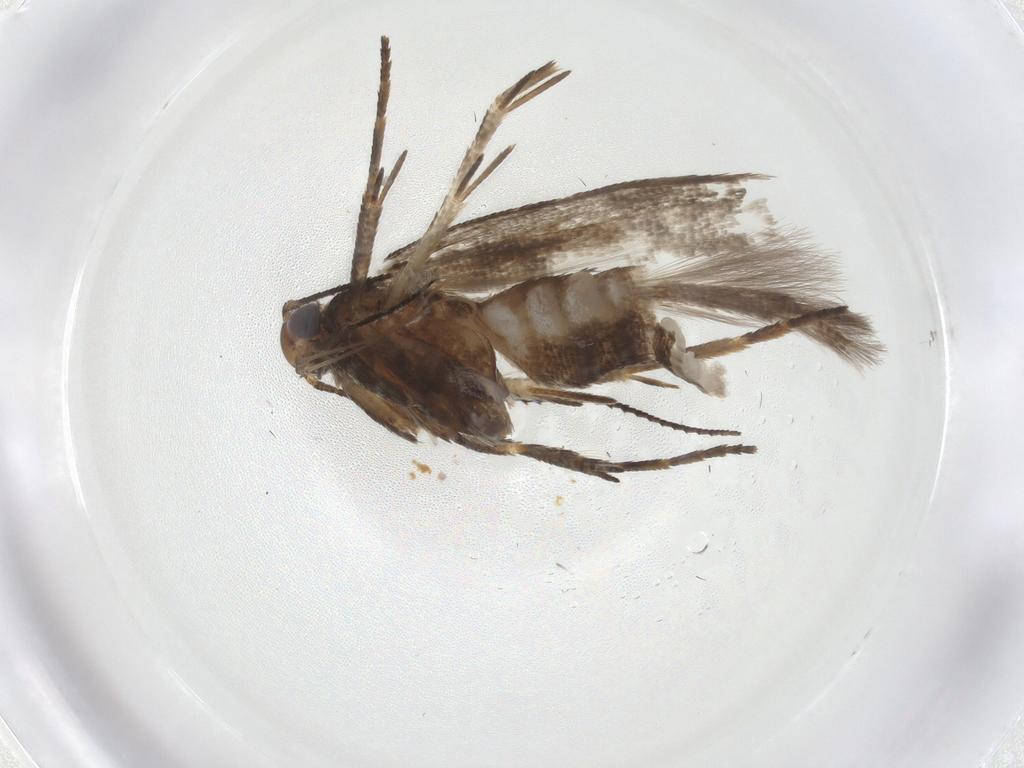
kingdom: Animalia
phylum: Arthropoda
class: Insecta
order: Lepidoptera
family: Gelechiidae
